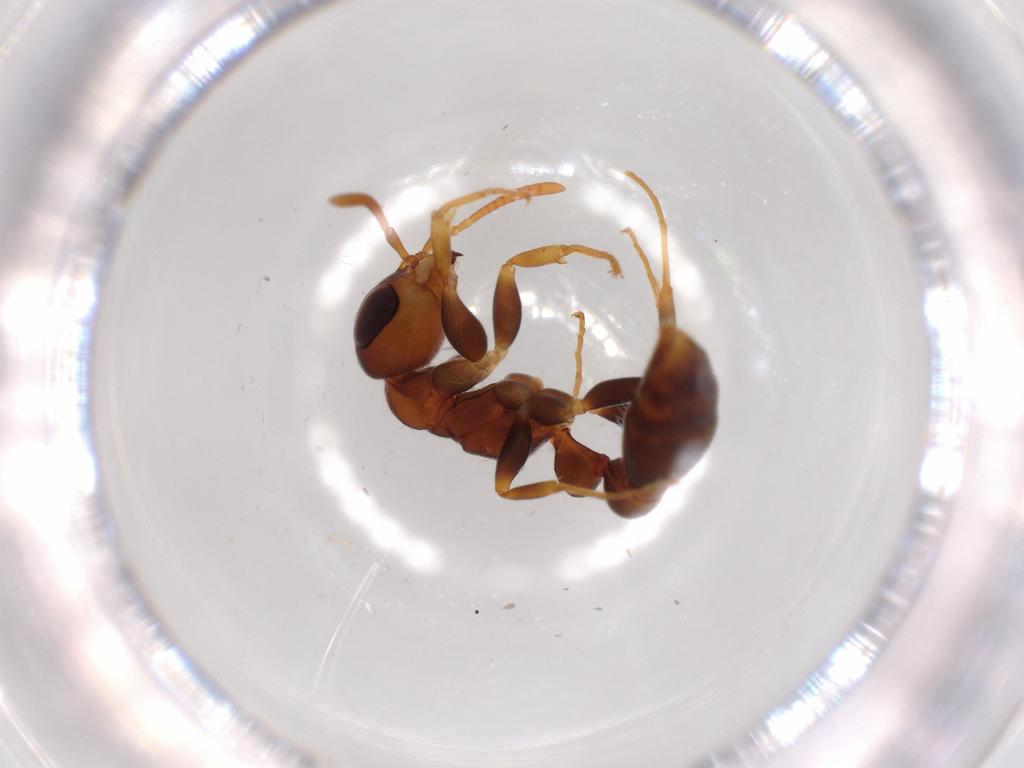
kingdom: Animalia
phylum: Arthropoda
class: Insecta
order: Hymenoptera
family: Formicidae
